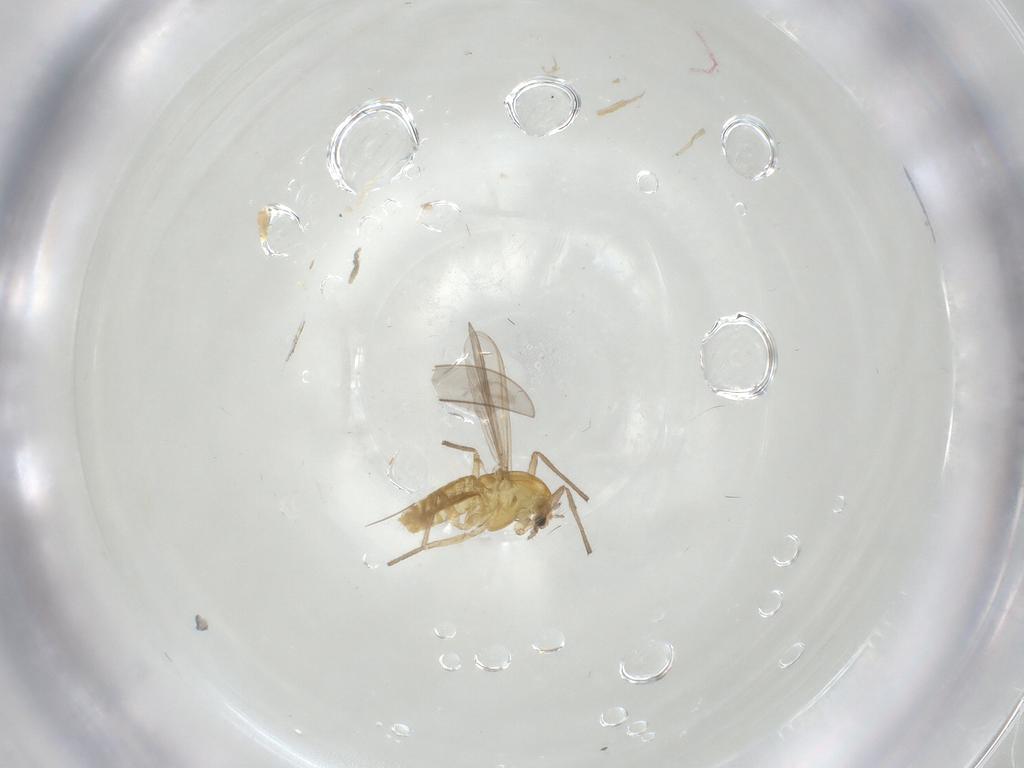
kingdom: Animalia
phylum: Arthropoda
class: Insecta
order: Diptera
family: Ceratopogonidae
